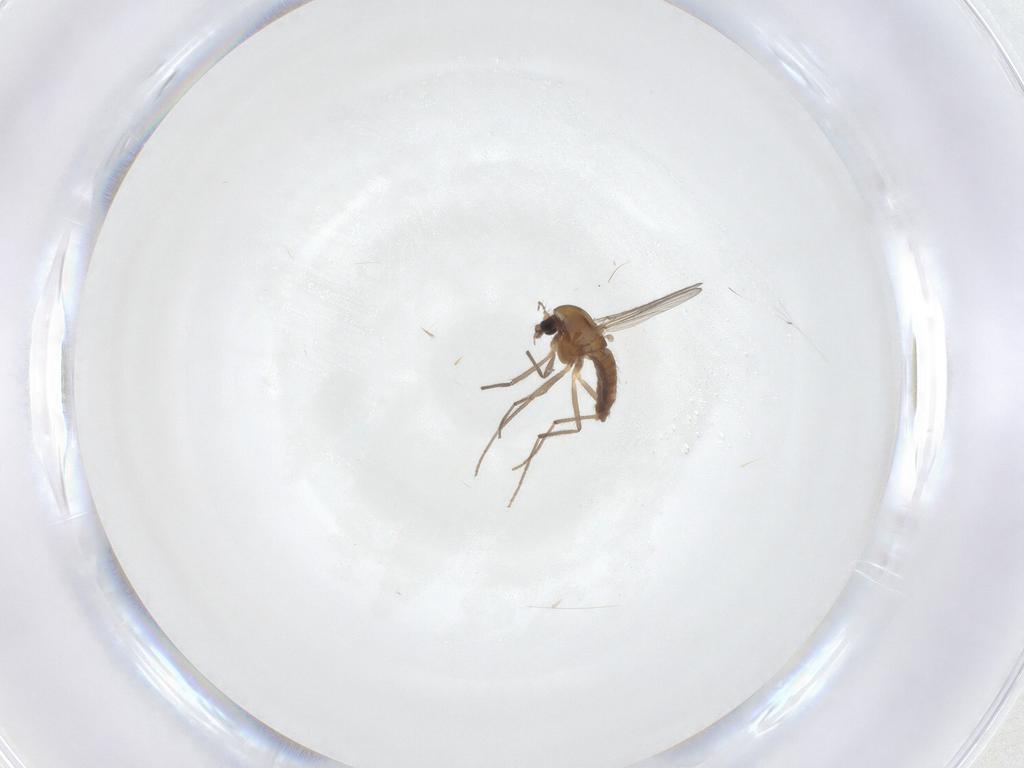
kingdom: Animalia
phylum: Arthropoda
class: Insecta
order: Diptera
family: Chironomidae
